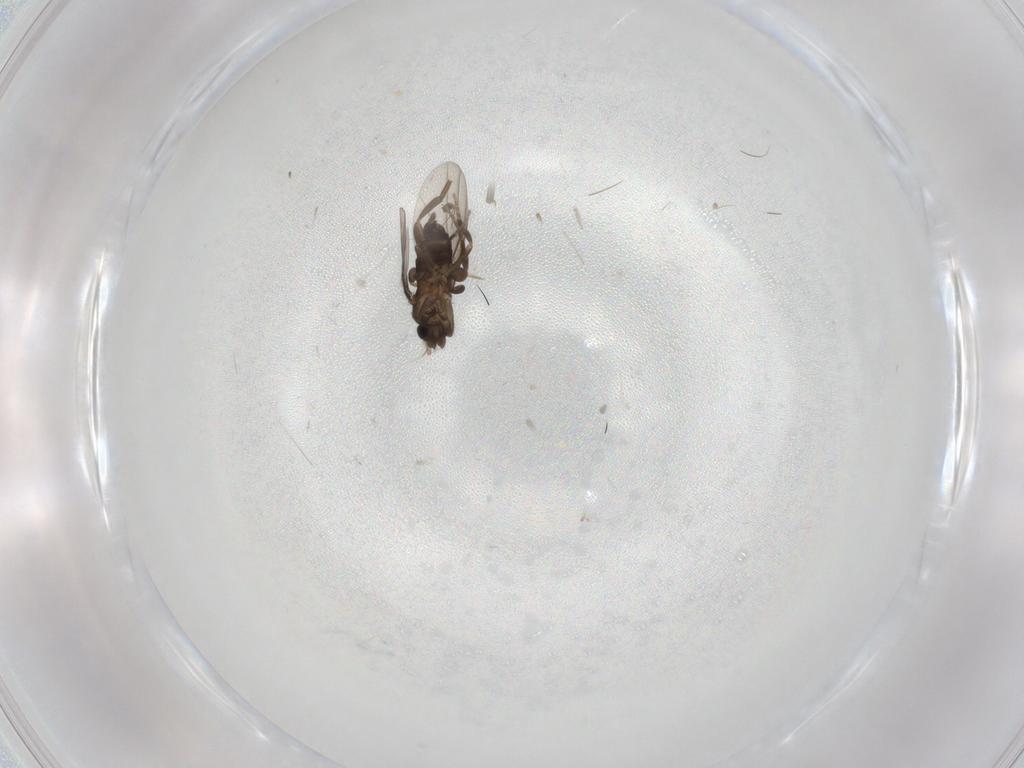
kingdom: Animalia
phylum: Arthropoda
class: Insecta
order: Diptera
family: Phoridae
